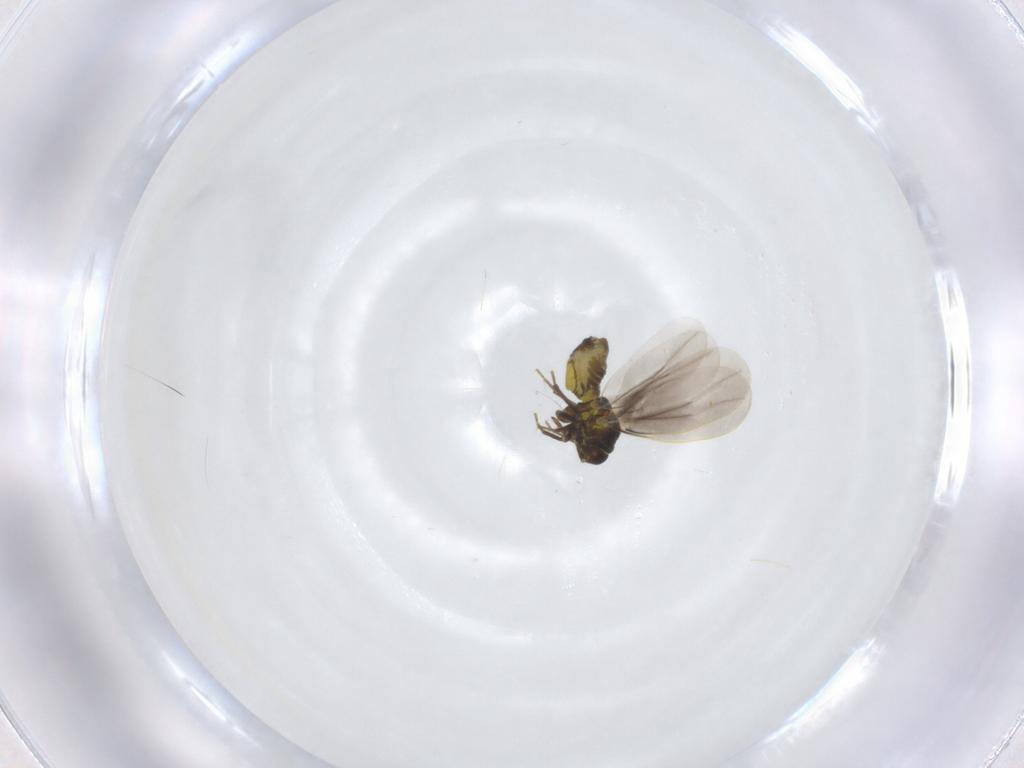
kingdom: Animalia
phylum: Arthropoda
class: Insecta
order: Hemiptera
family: Aleyrodidae
